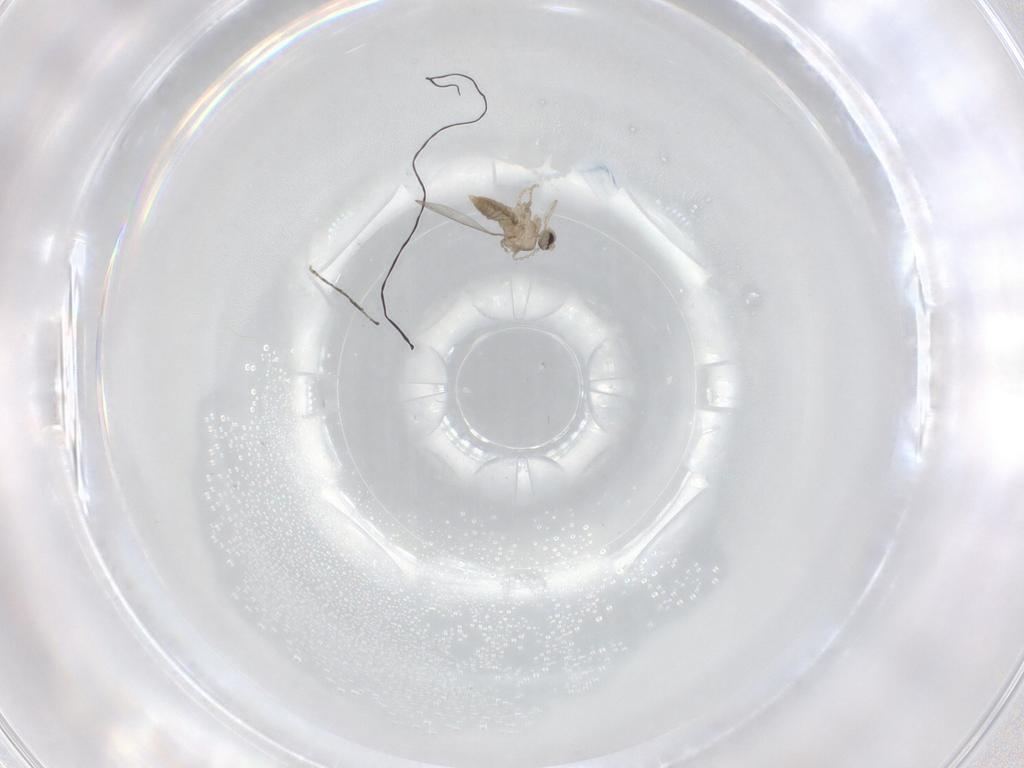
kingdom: Animalia
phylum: Arthropoda
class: Insecta
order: Diptera
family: Cecidomyiidae
